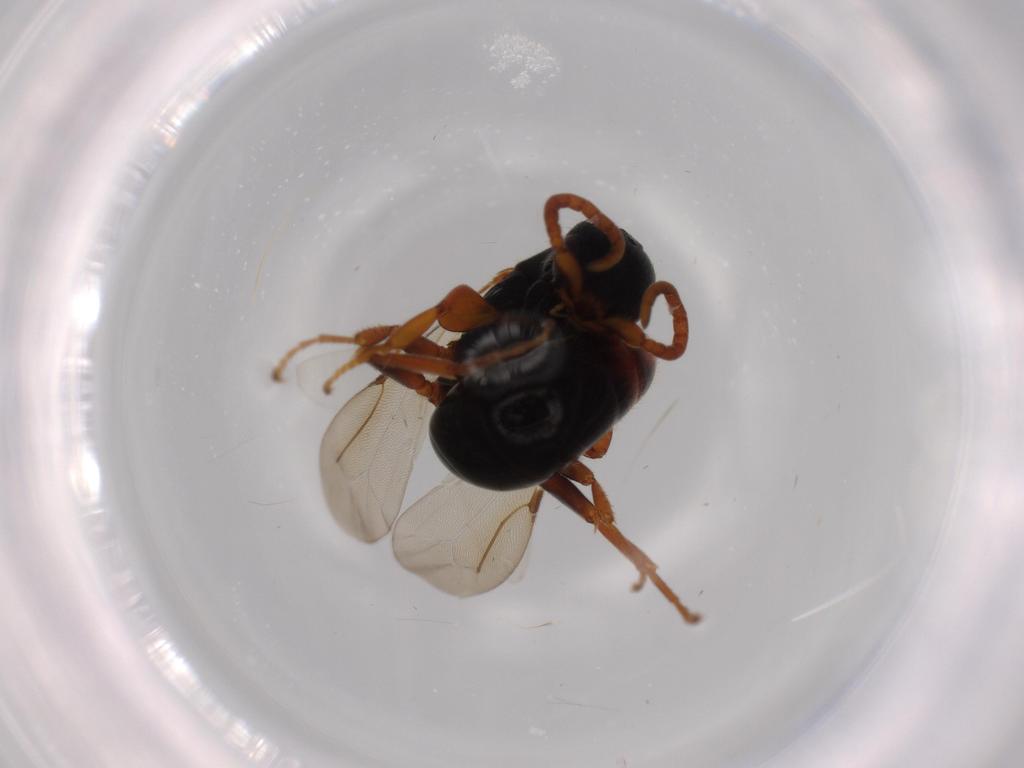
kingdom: Animalia
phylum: Arthropoda
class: Insecta
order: Hymenoptera
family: Bethylidae
